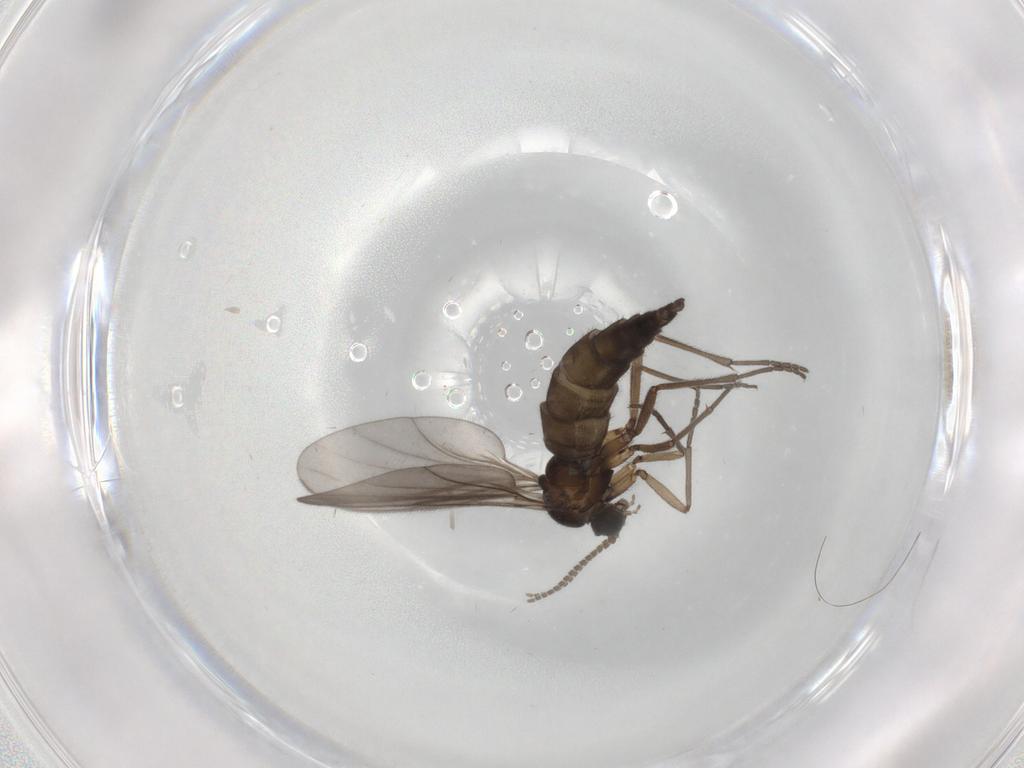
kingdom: Animalia
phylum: Arthropoda
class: Insecta
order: Diptera
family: Sciaridae
